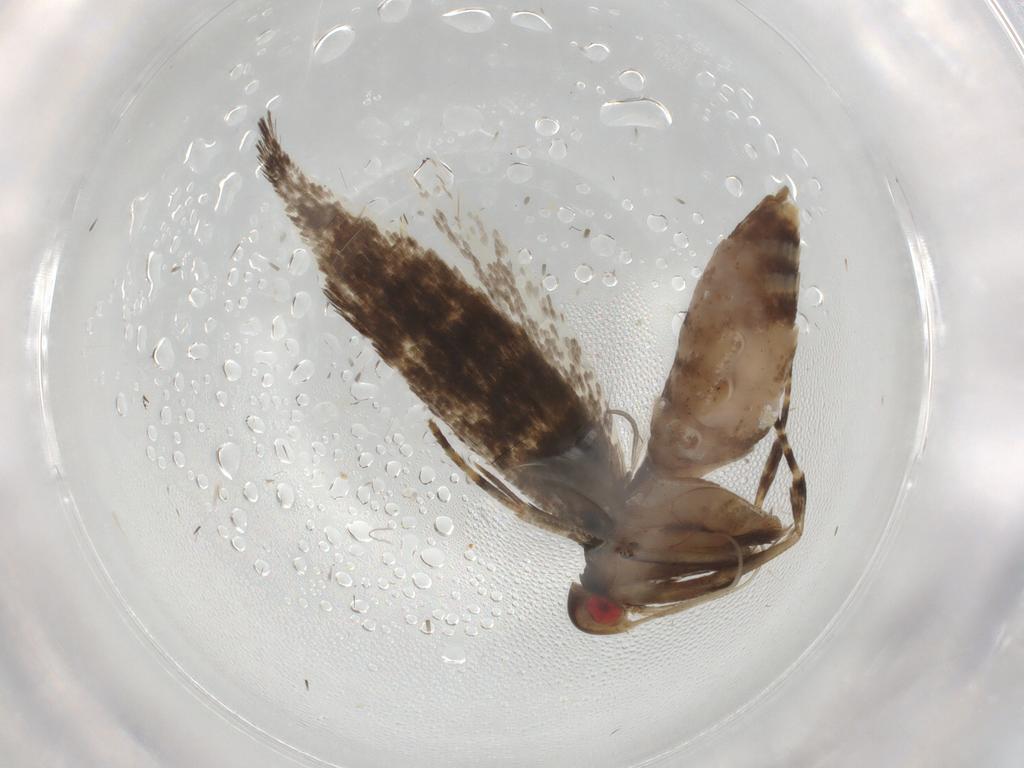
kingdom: Animalia
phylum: Arthropoda
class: Insecta
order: Lepidoptera
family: Cosmopterigidae
